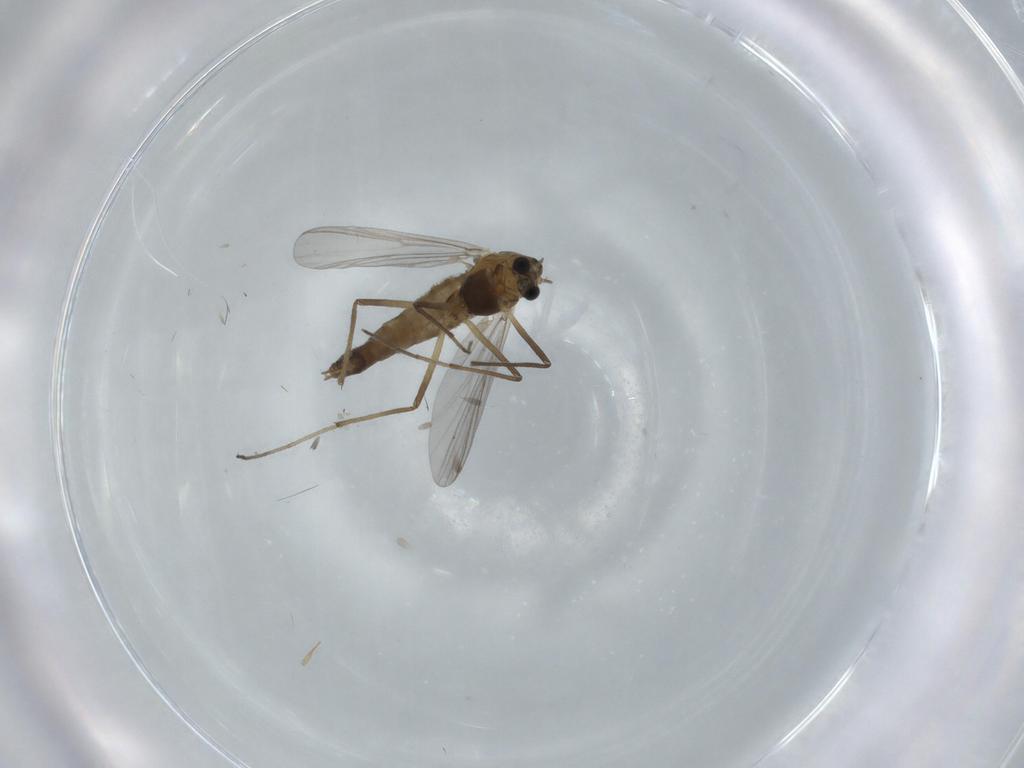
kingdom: Animalia
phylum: Arthropoda
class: Insecta
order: Diptera
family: Chironomidae
